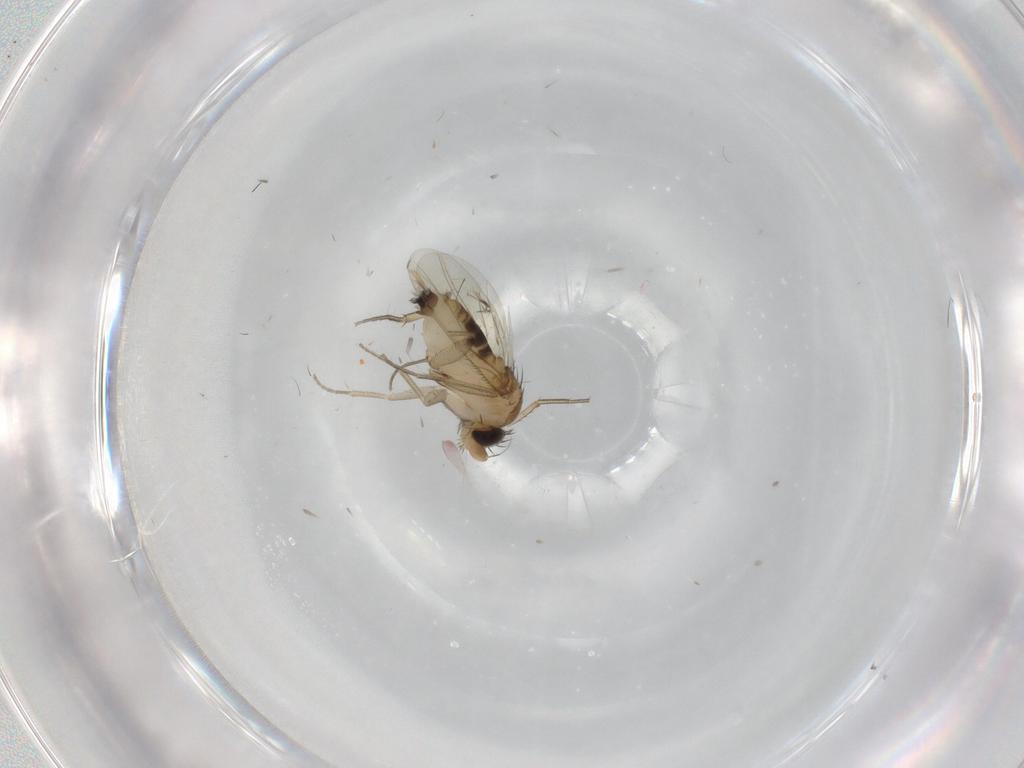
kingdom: Animalia
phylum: Arthropoda
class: Insecta
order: Diptera
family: Phoridae
